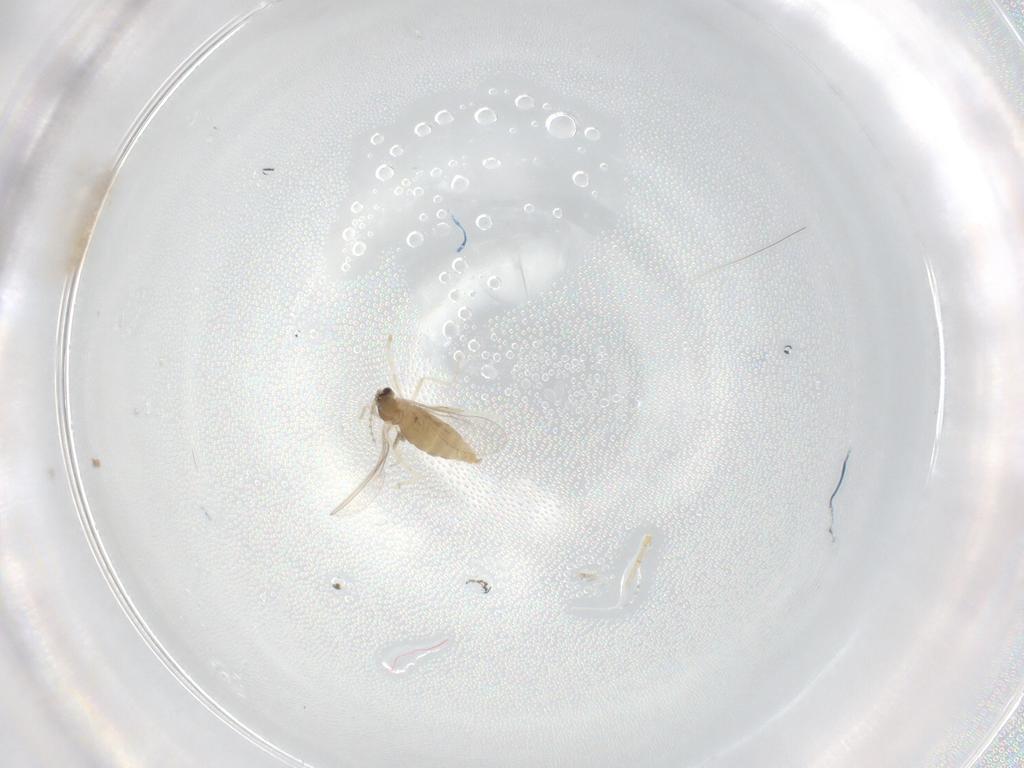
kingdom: Animalia
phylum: Arthropoda
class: Insecta
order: Diptera
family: Cecidomyiidae
